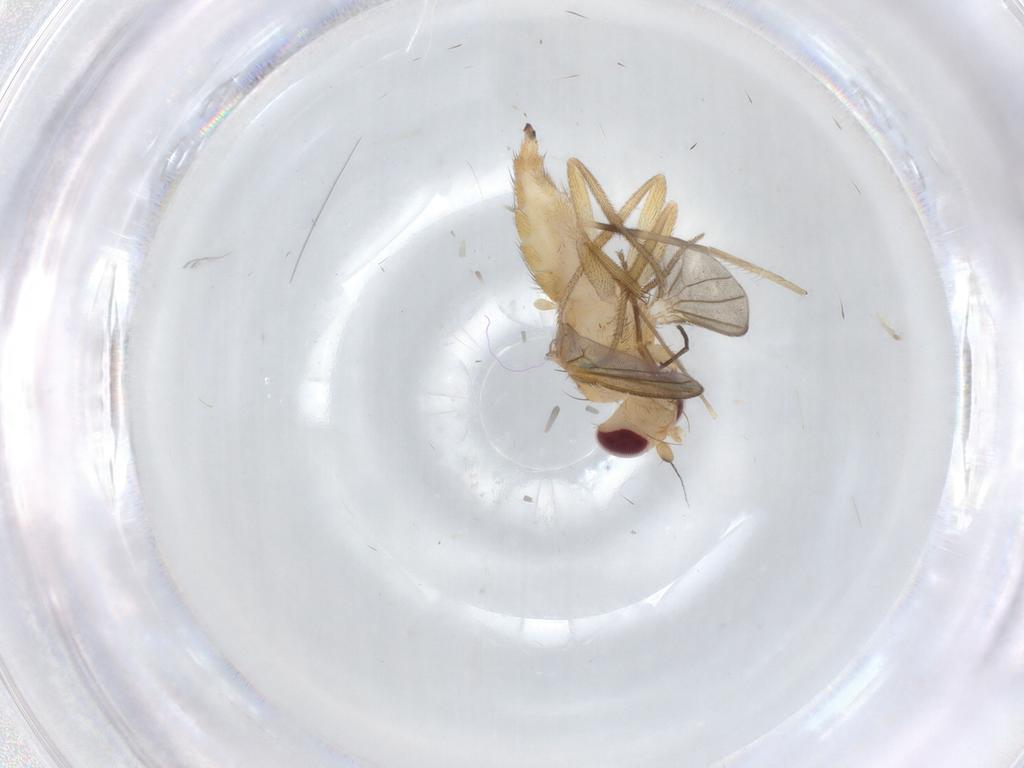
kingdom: Animalia
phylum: Arthropoda
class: Insecta
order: Diptera
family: Clusiidae
